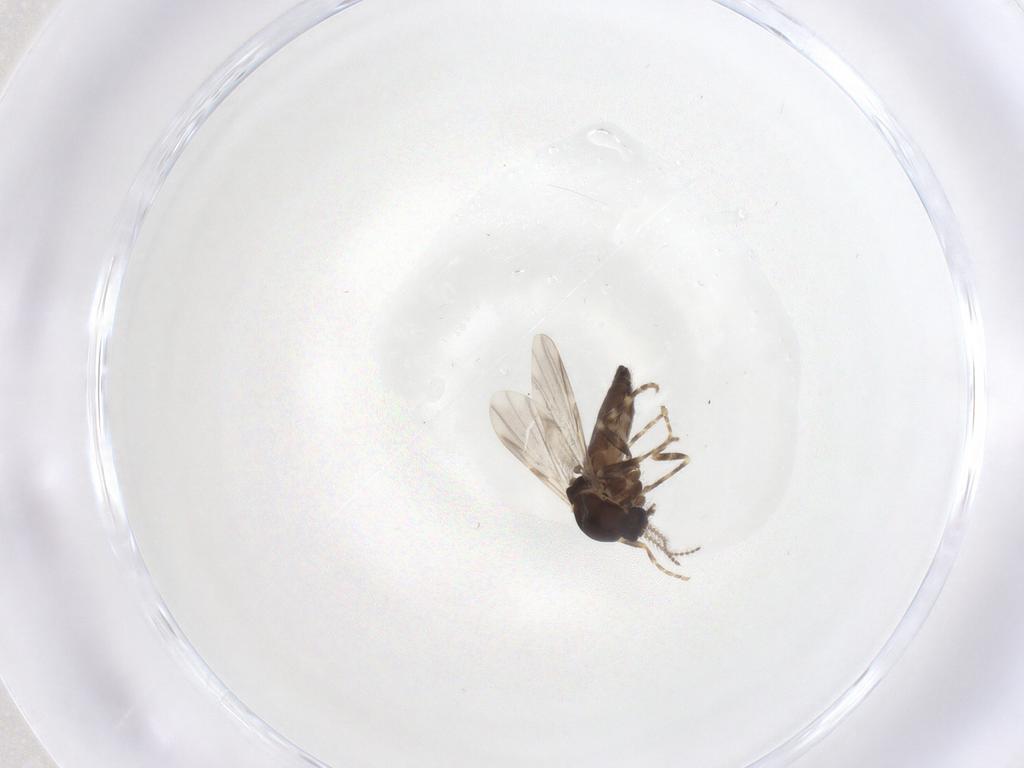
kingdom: Animalia
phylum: Arthropoda
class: Insecta
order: Diptera
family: Ceratopogonidae
